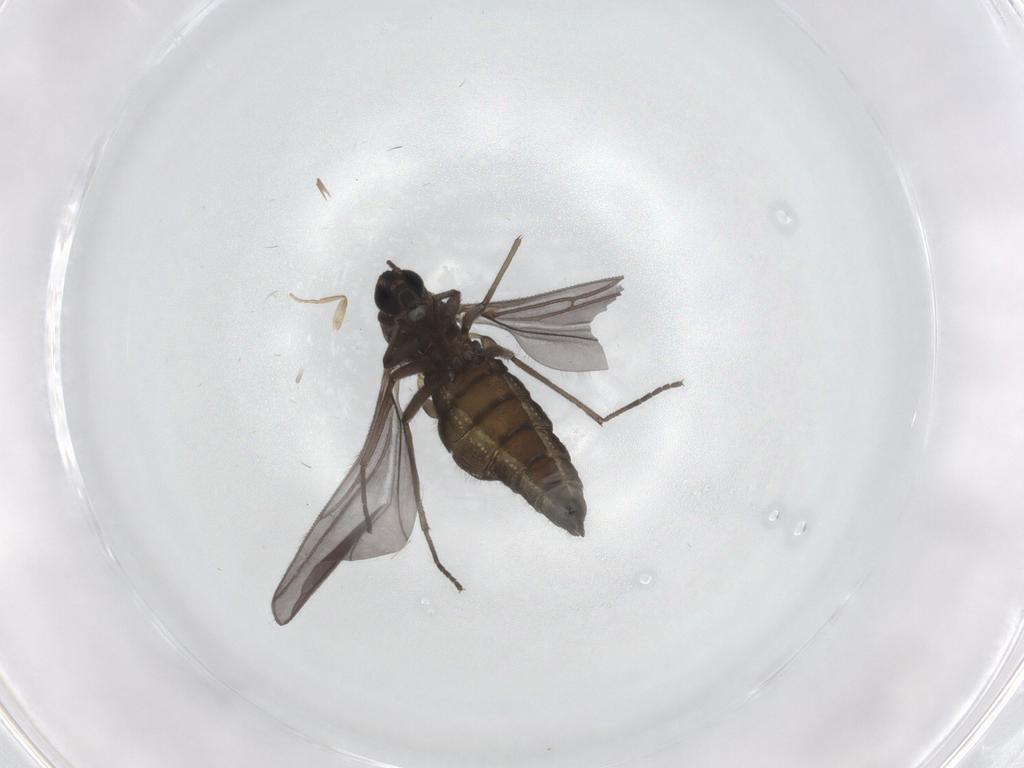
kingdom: Animalia
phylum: Arthropoda
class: Insecta
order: Diptera
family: Sciaridae
